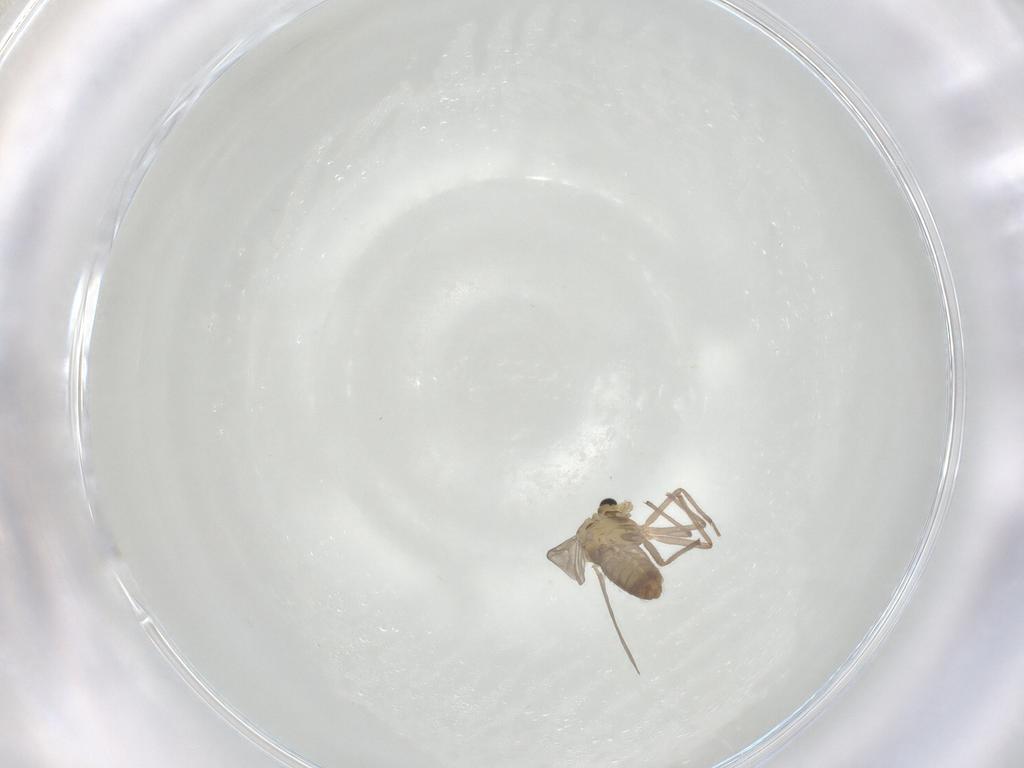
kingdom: Animalia
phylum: Arthropoda
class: Insecta
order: Diptera
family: Chironomidae
